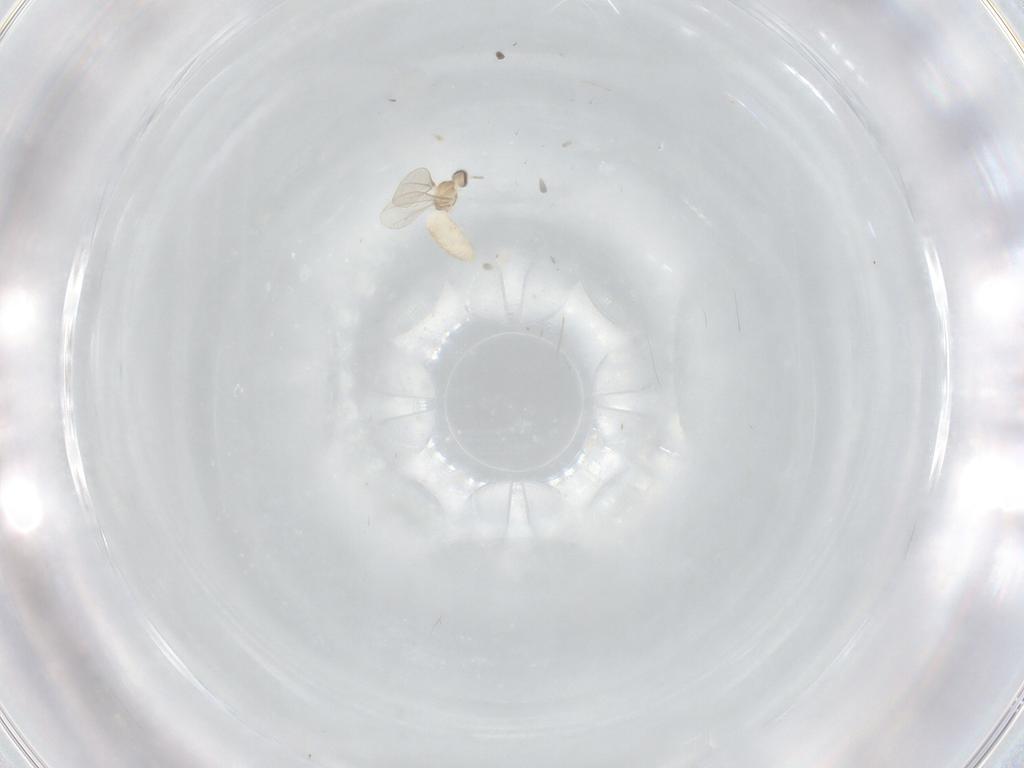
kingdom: Animalia
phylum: Arthropoda
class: Insecta
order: Diptera
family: Cecidomyiidae
